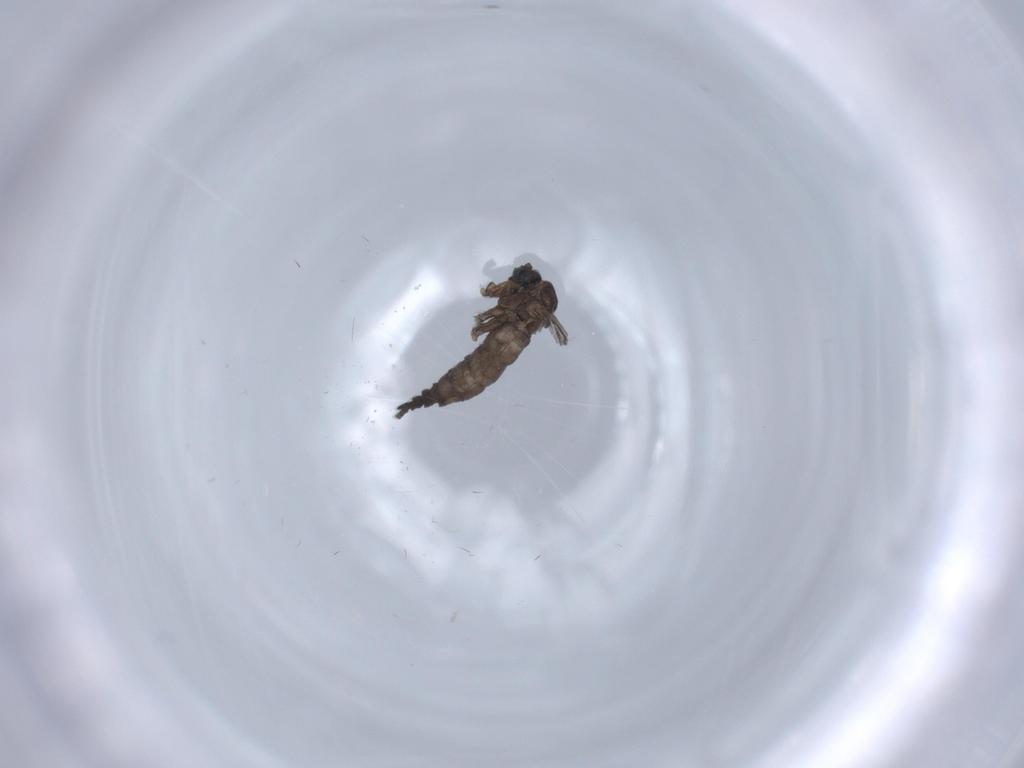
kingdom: Animalia
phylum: Arthropoda
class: Insecta
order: Diptera
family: Sciaridae
